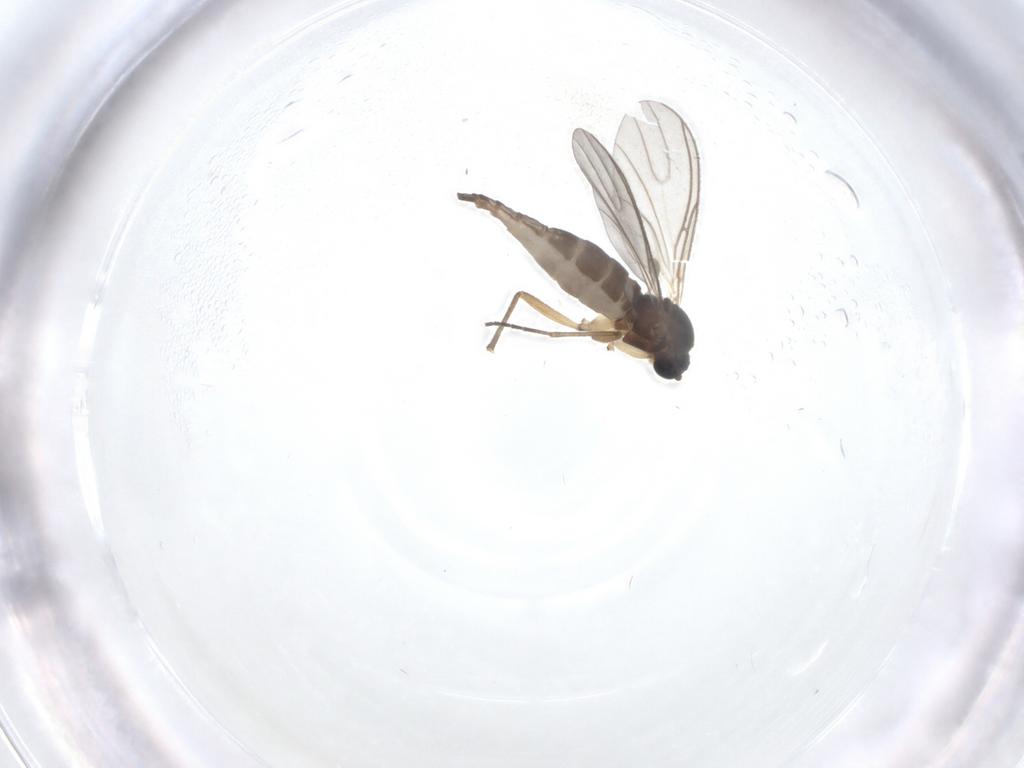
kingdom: Animalia
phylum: Arthropoda
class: Insecta
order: Diptera
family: Sciaridae
